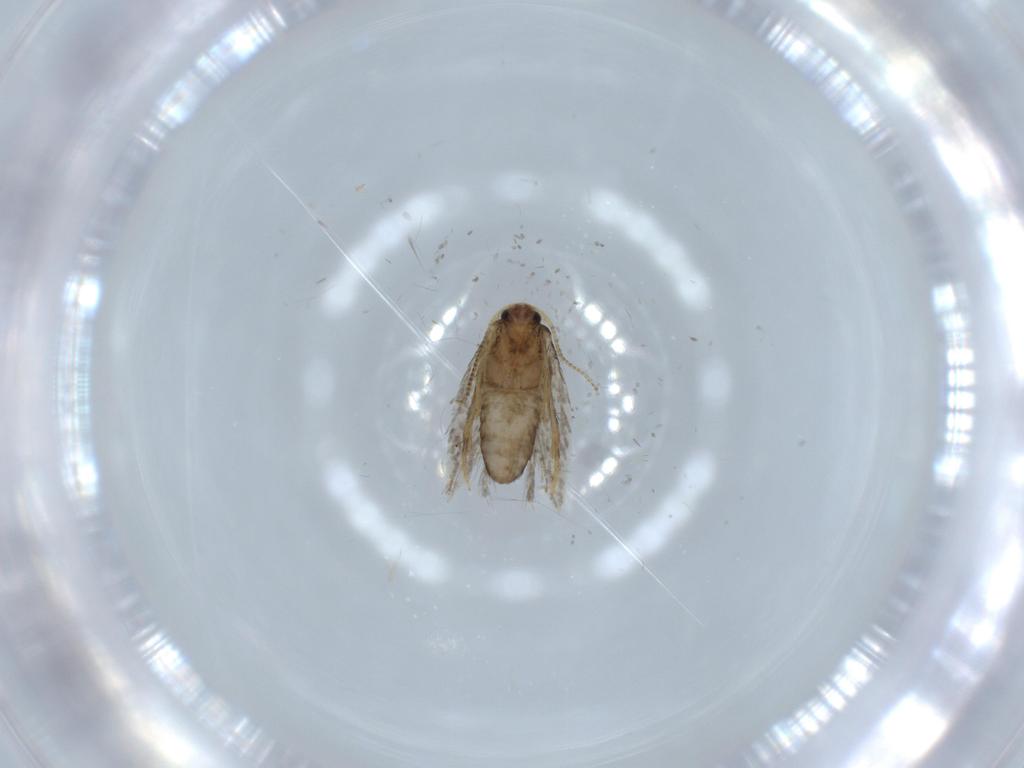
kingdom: Animalia
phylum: Arthropoda
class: Insecta
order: Lepidoptera
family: Nepticulidae
